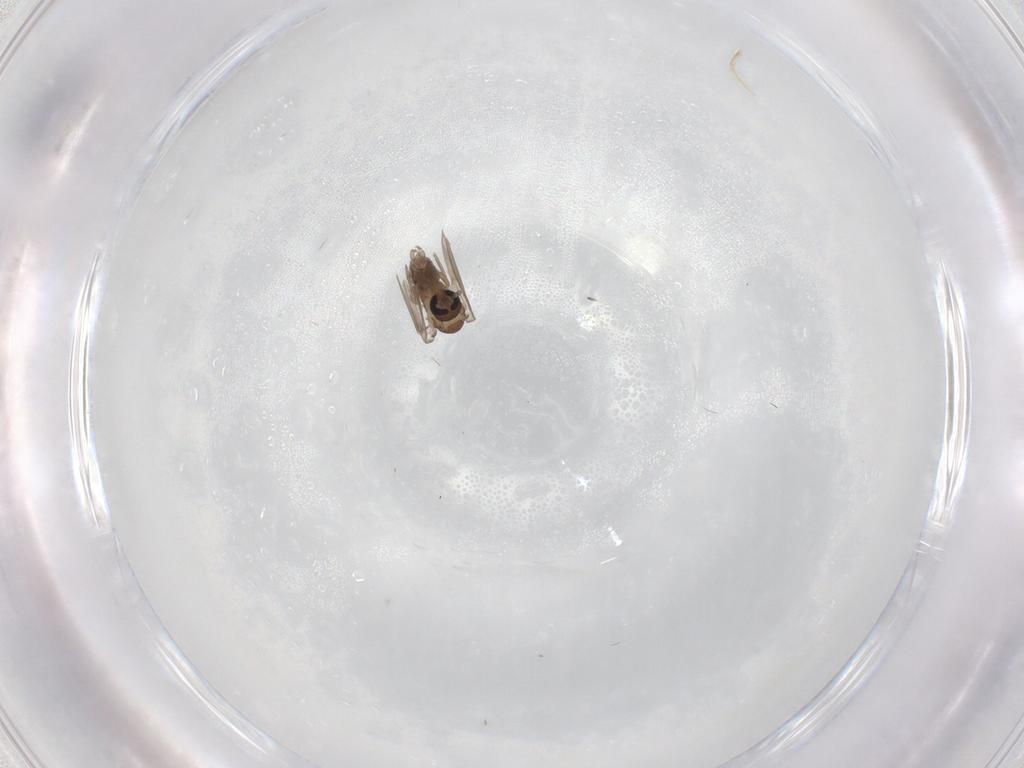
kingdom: Animalia
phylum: Arthropoda
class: Insecta
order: Diptera
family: Psychodidae
